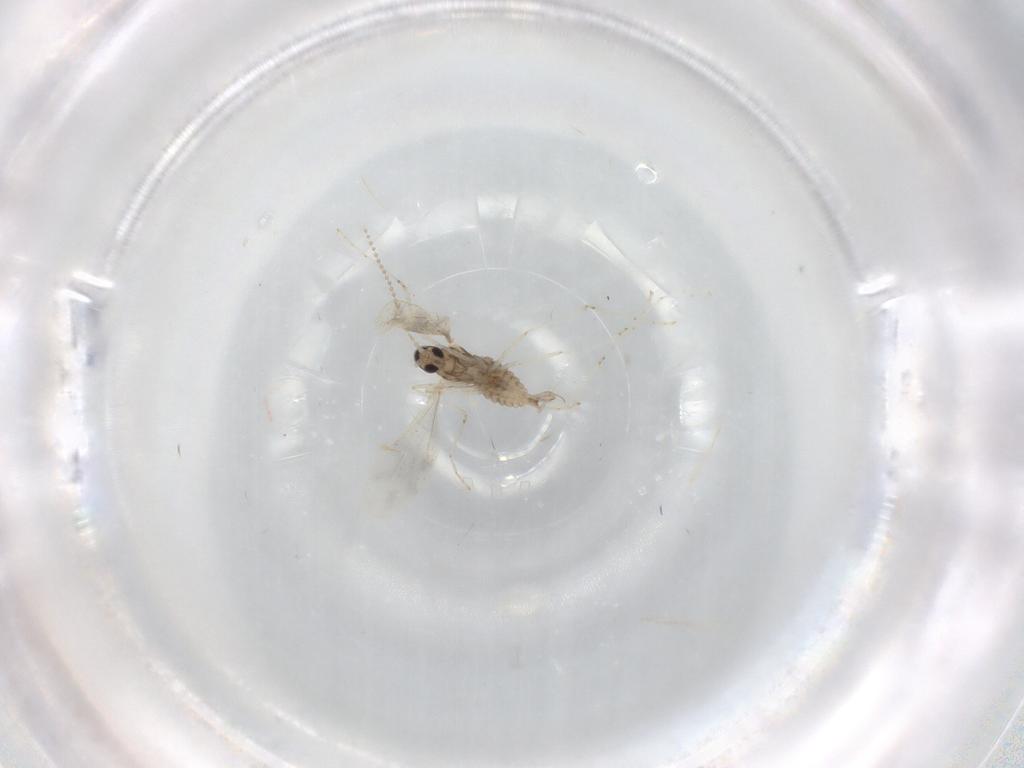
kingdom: Animalia
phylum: Arthropoda
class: Insecta
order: Diptera
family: Cecidomyiidae
